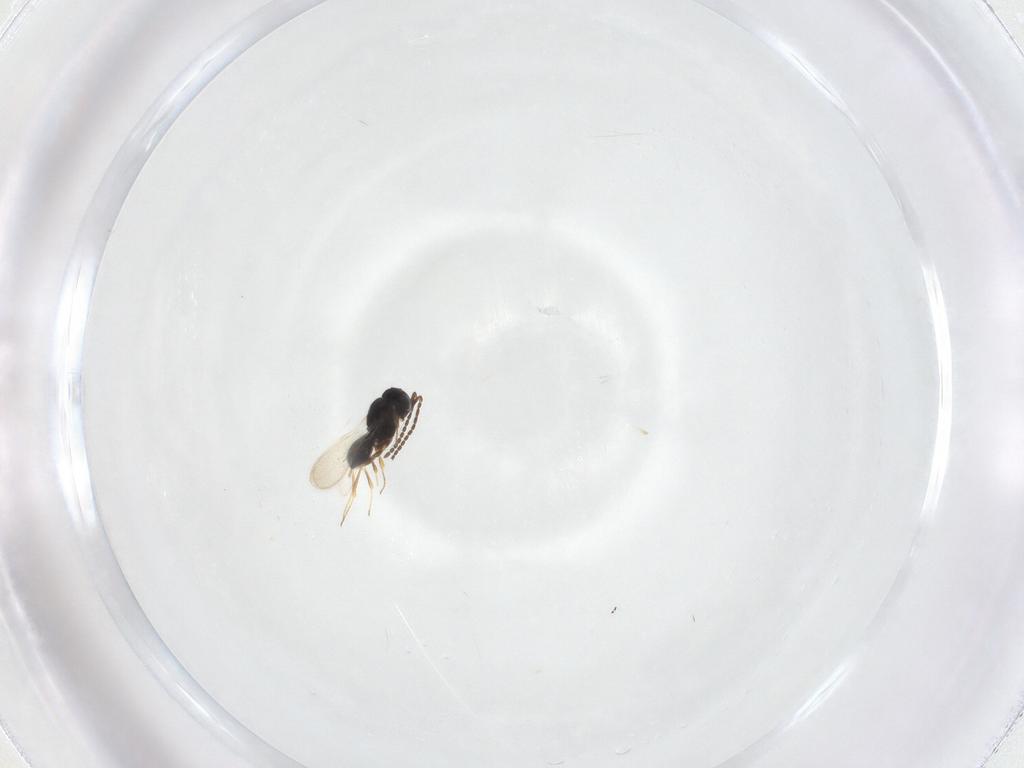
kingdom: Animalia
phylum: Arthropoda
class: Insecta
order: Hymenoptera
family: Scelionidae
